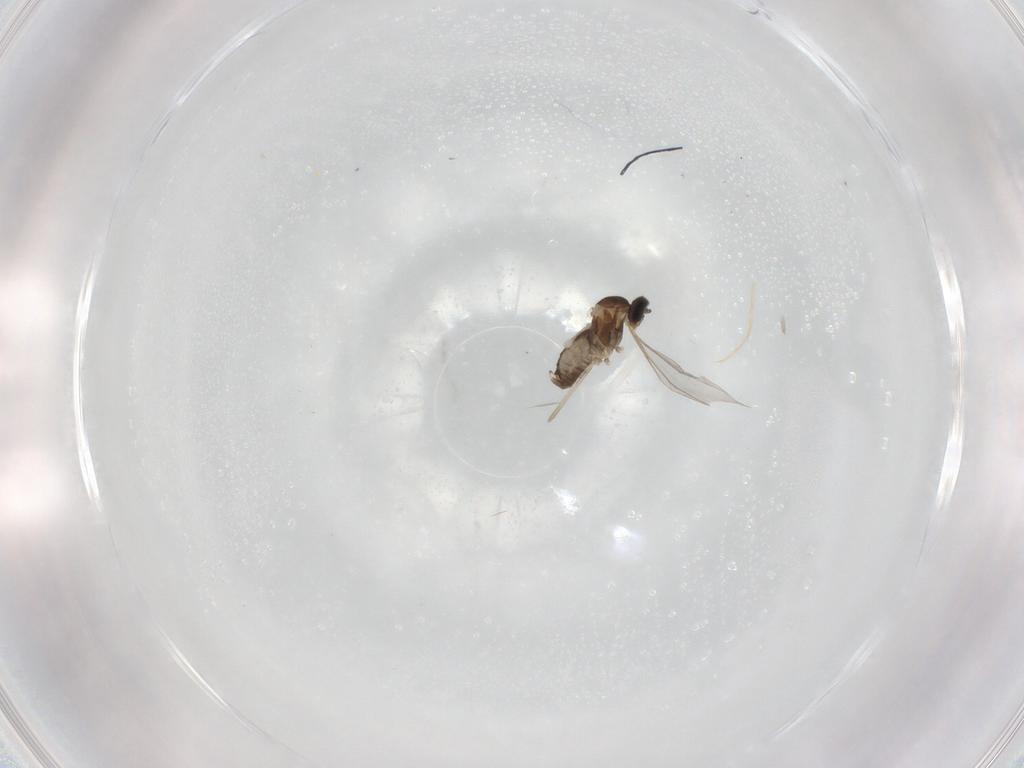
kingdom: Animalia
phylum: Arthropoda
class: Insecta
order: Diptera
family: Cecidomyiidae
